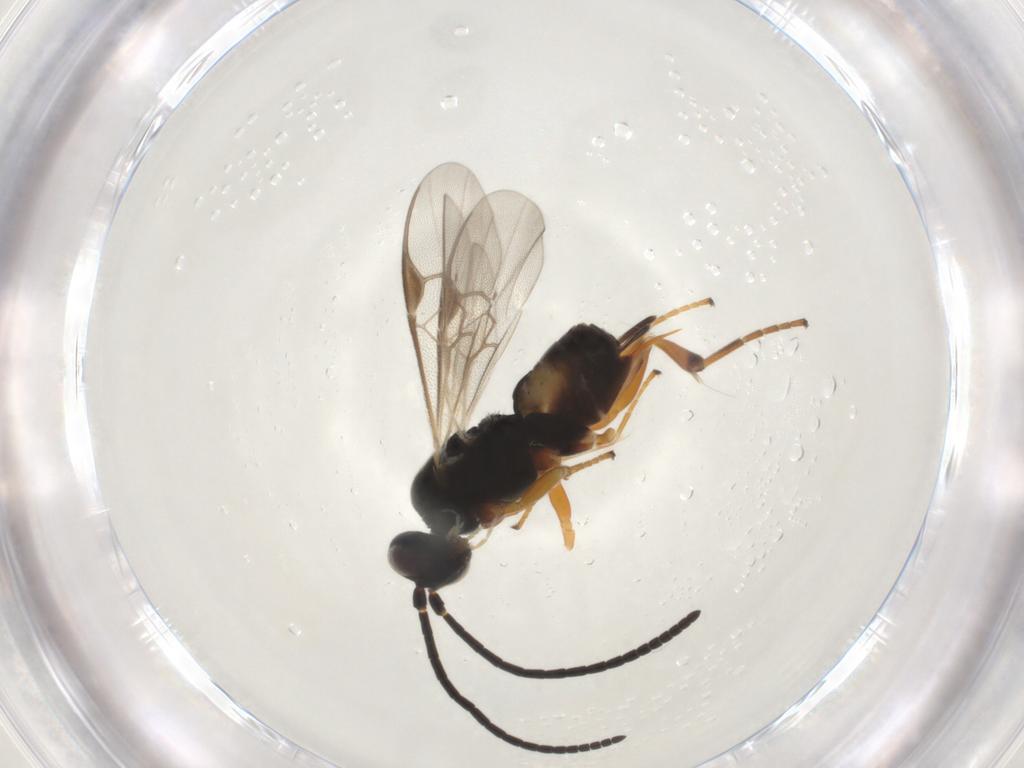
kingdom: Animalia
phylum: Arthropoda
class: Insecta
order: Hymenoptera
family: Braconidae
